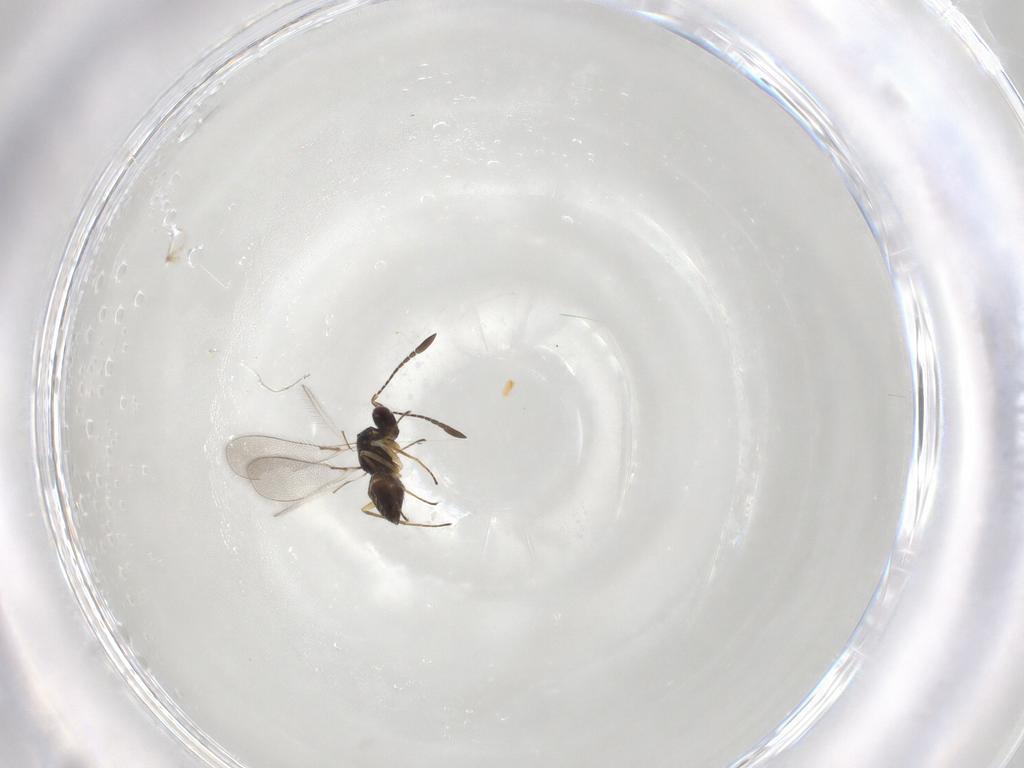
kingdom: Animalia
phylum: Arthropoda
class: Insecta
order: Hymenoptera
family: Mymaridae
